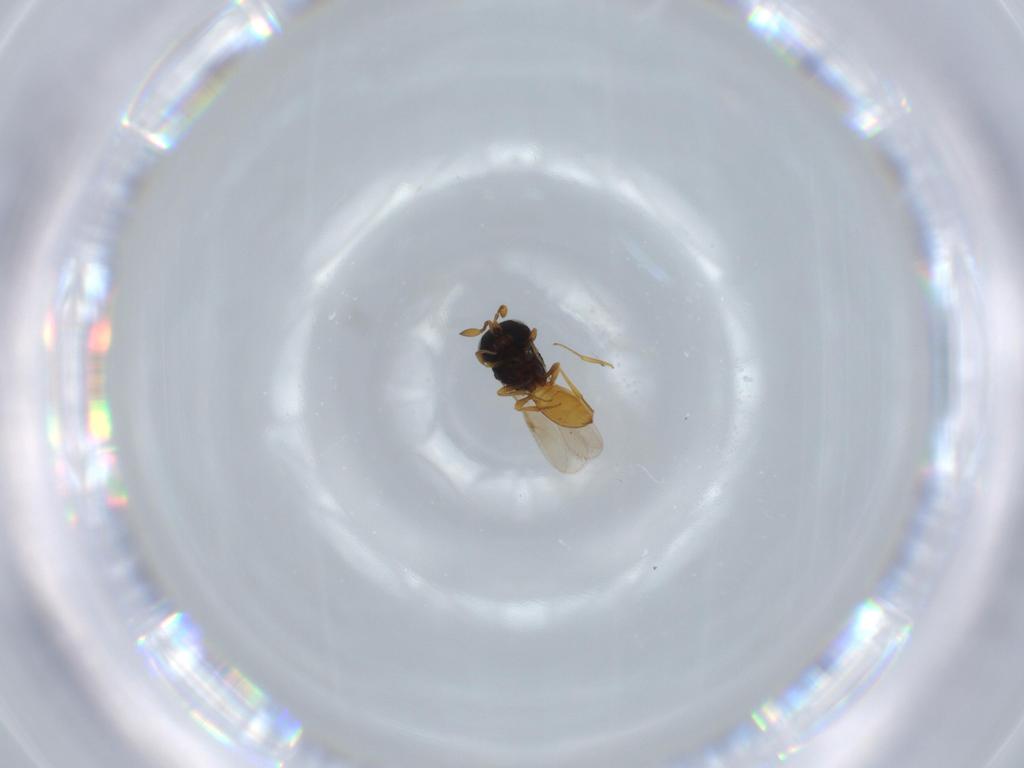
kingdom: Animalia
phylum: Arthropoda
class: Insecta
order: Hymenoptera
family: Scelionidae
